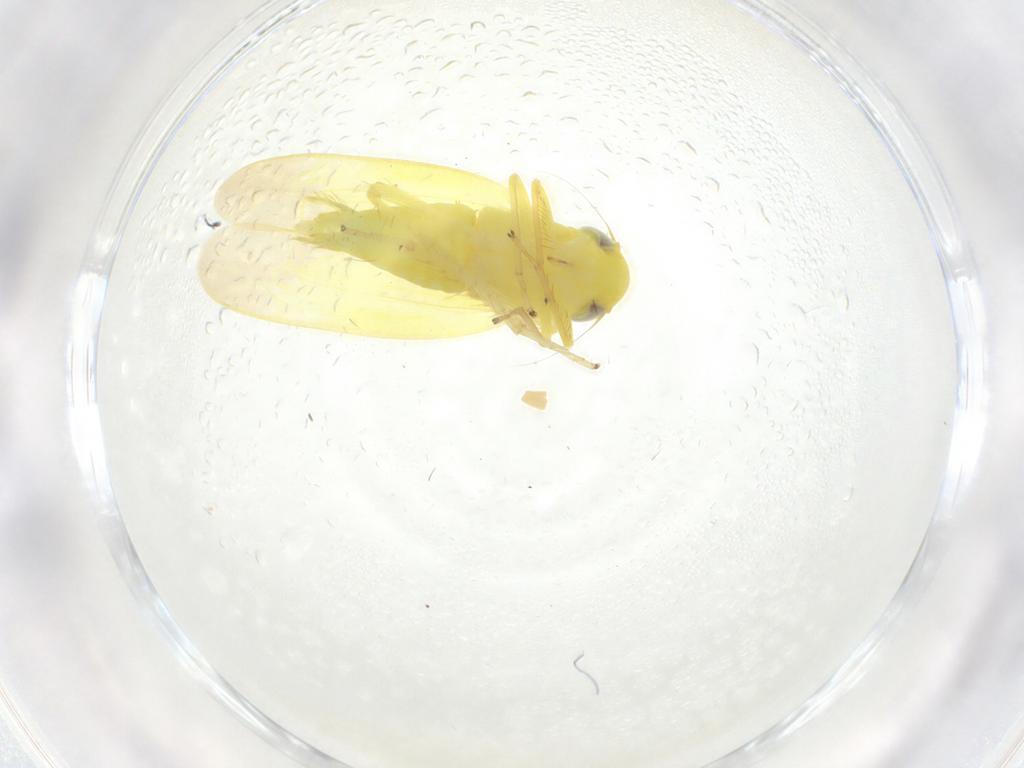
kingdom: Animalia
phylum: Arthropoda
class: Insecta
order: Hemiptera
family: Cicadellidae
